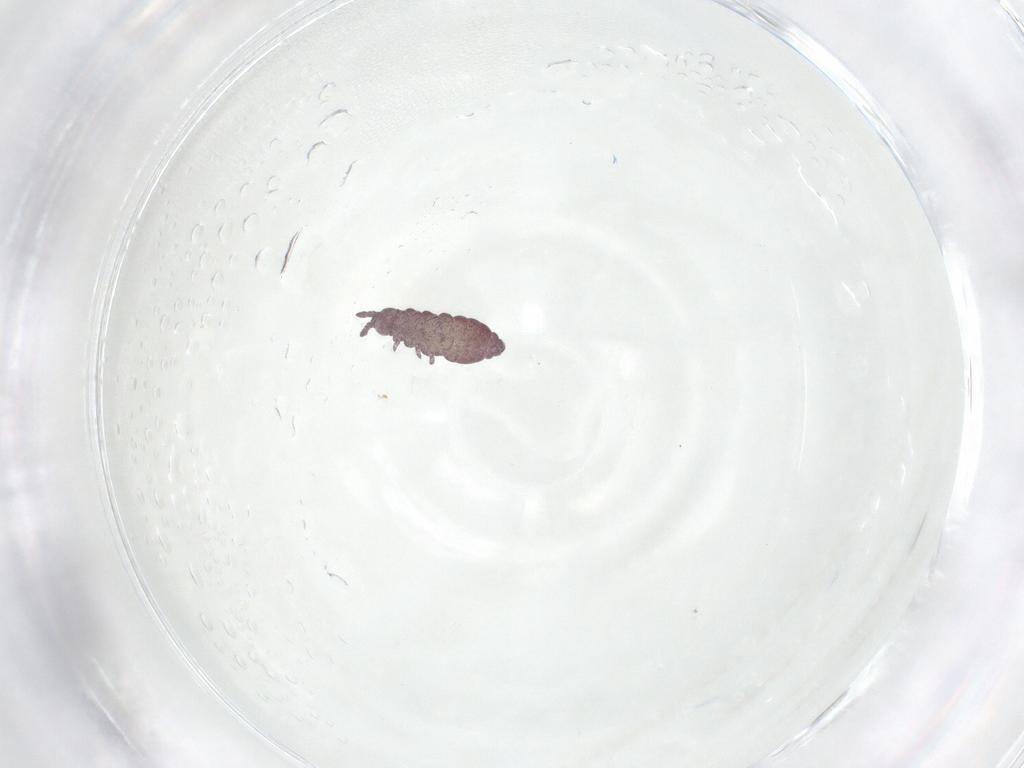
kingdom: Animalia
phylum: Arthropoda
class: Collembola
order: Poduromorpha
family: Hypogastruridae
